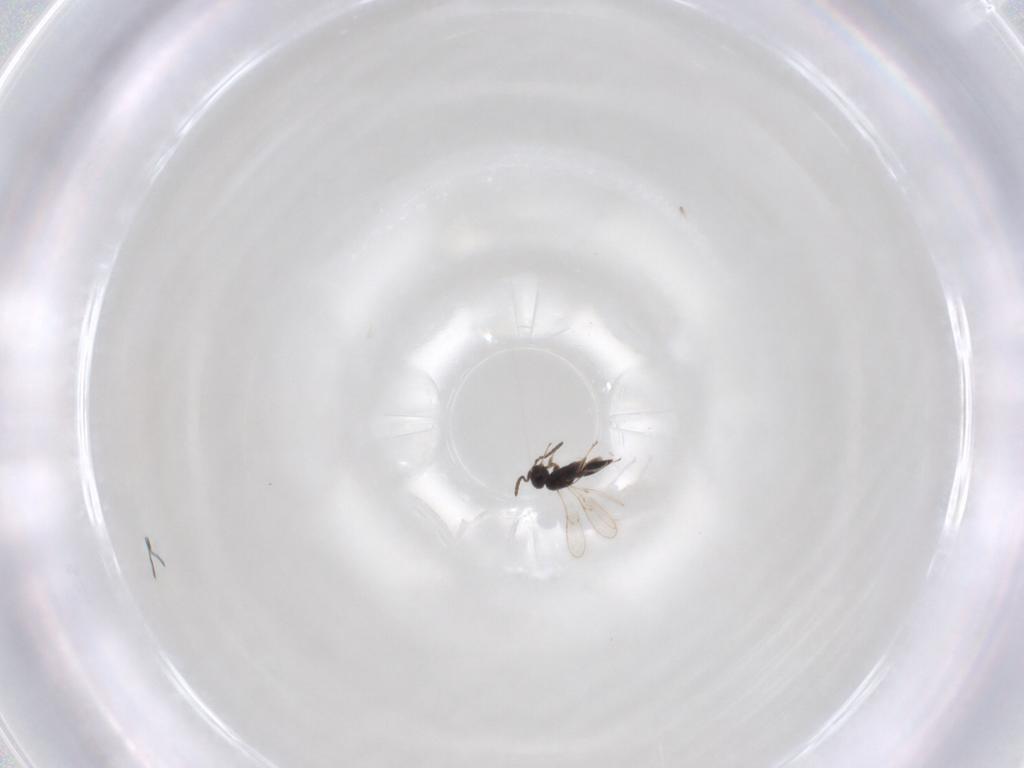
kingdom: Animalia
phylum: Arthropoda
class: Insecta
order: Hymenoptera
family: Scelionidae
